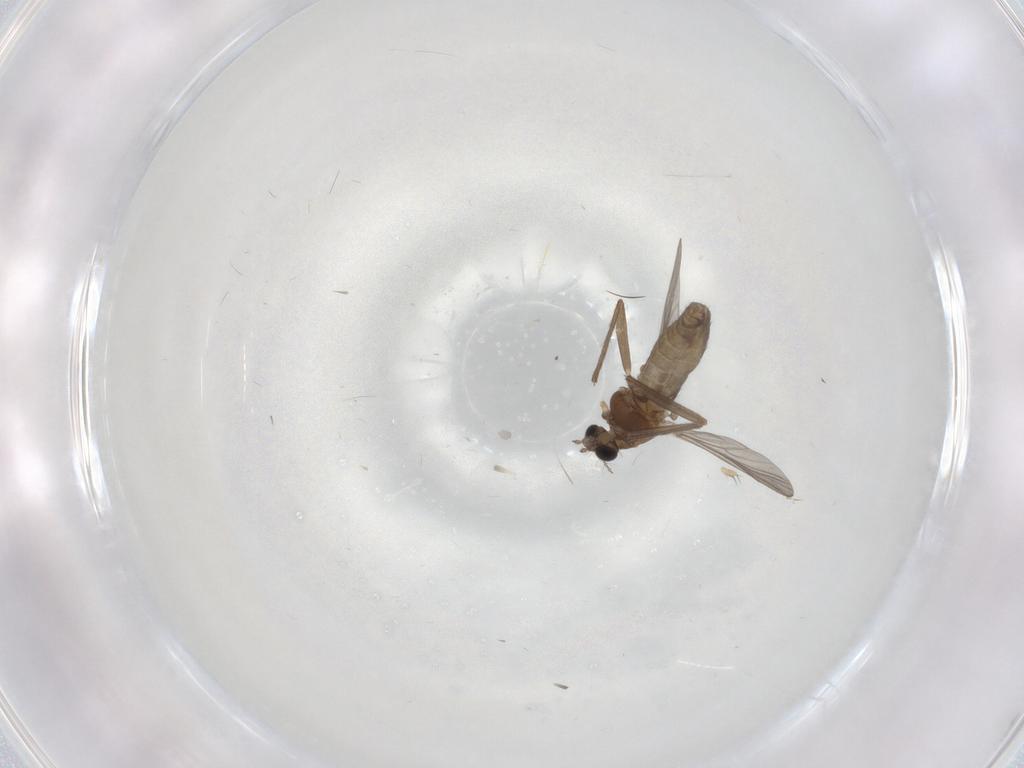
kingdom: Animalia
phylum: Arthropoda
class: Insecta
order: Diptera
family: Chironomidae
